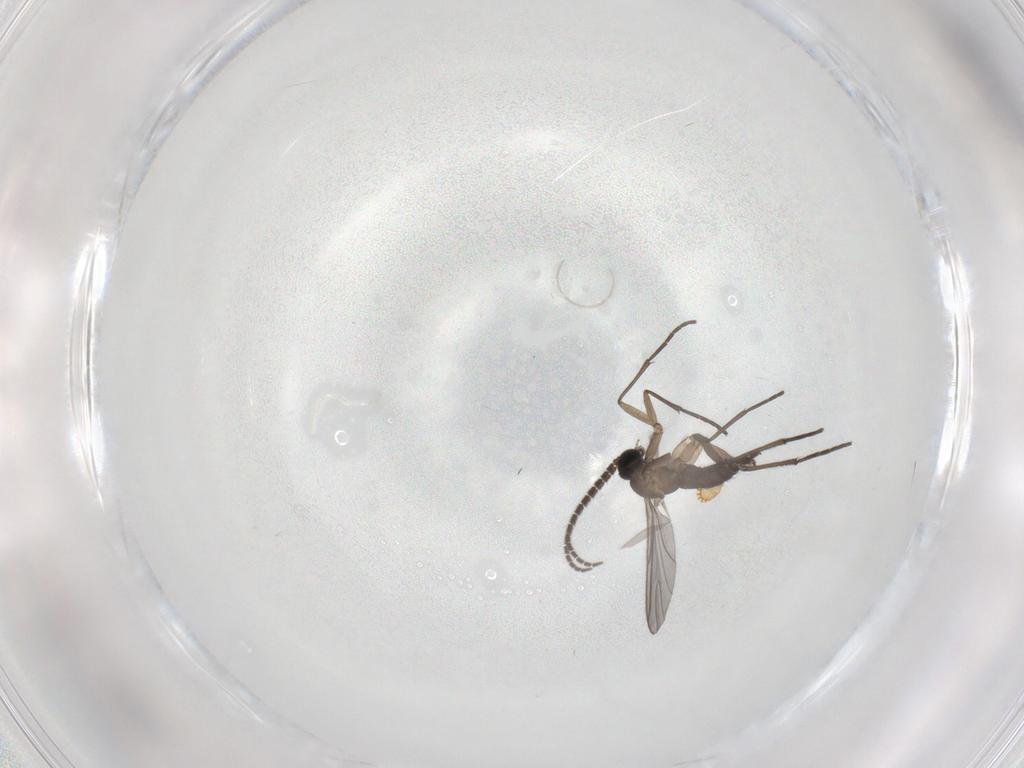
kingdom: Animalia
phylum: Arthropoda
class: Insecta
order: Diptera
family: Sciaridae
